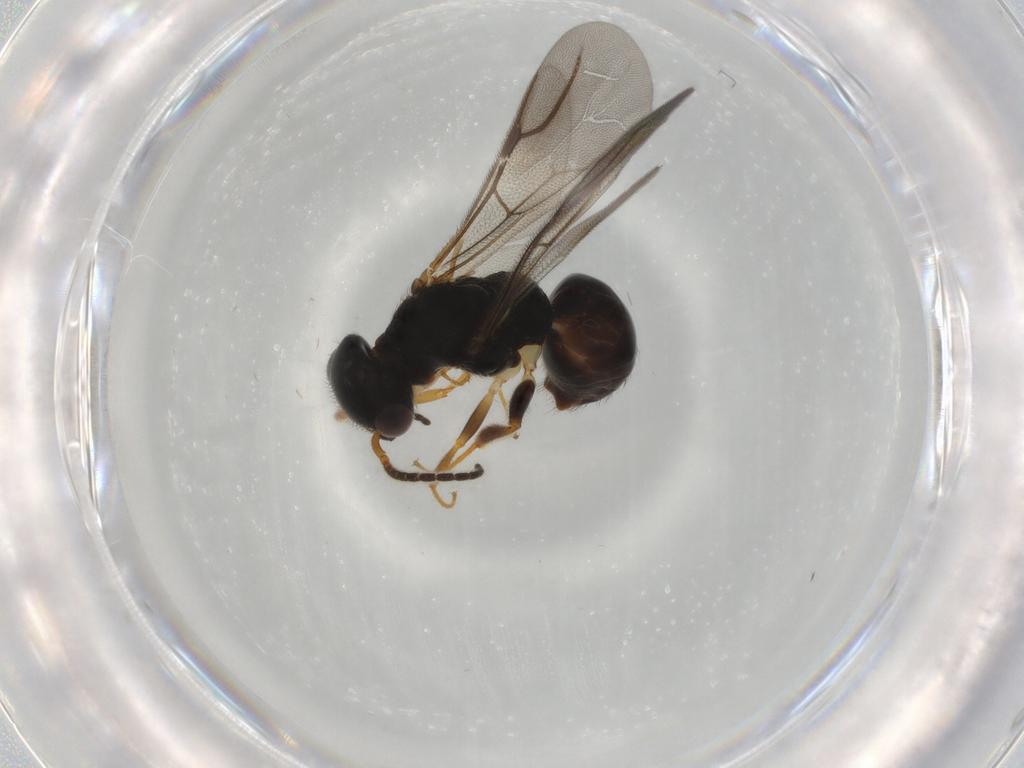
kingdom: Animalia
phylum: Arthropoda
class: Insecta
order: Hymenoptera
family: Bethylidae
